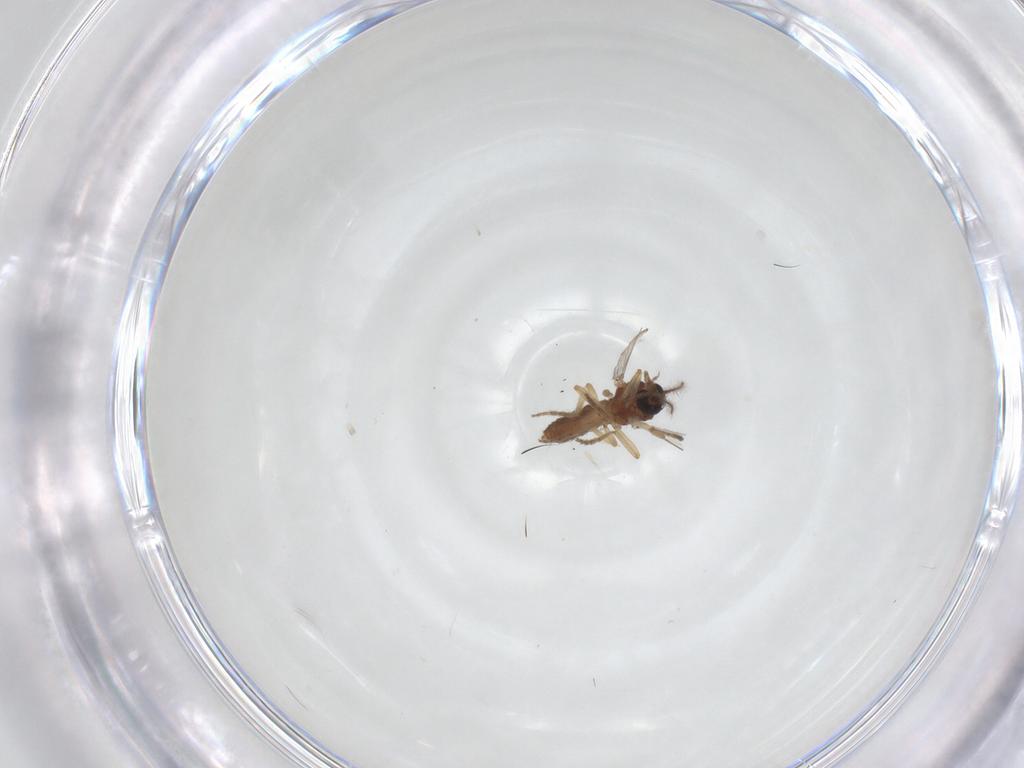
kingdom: Animalia
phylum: Arthropoda
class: Insecta
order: Diptera
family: Ceratopogonidae
